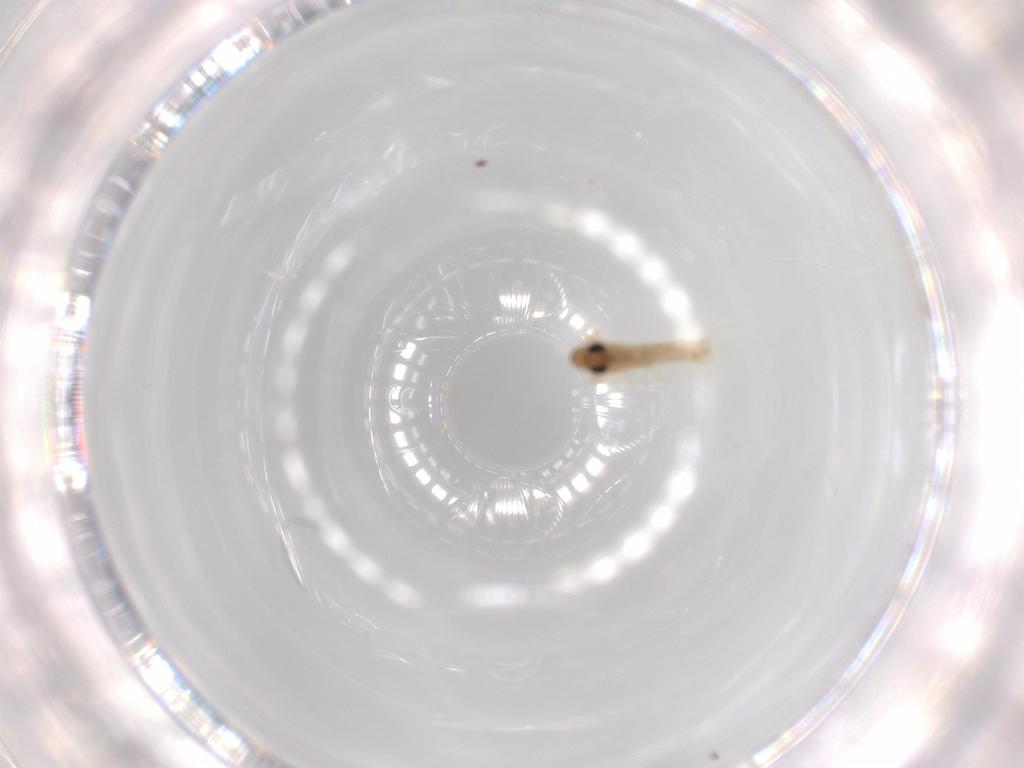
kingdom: Animalia
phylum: Arthropoda
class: Insecta
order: Diptera
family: Psychodidae
